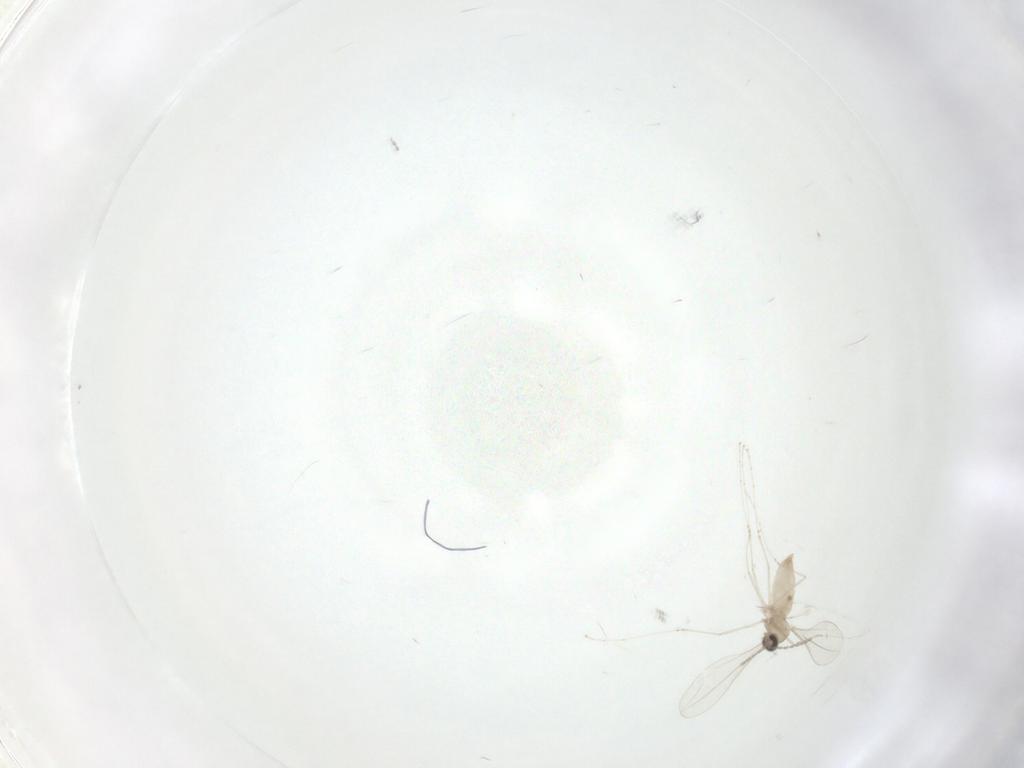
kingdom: Animalia
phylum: Arthropoda
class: Insecta
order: Diptera
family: Cecidomyiidae
